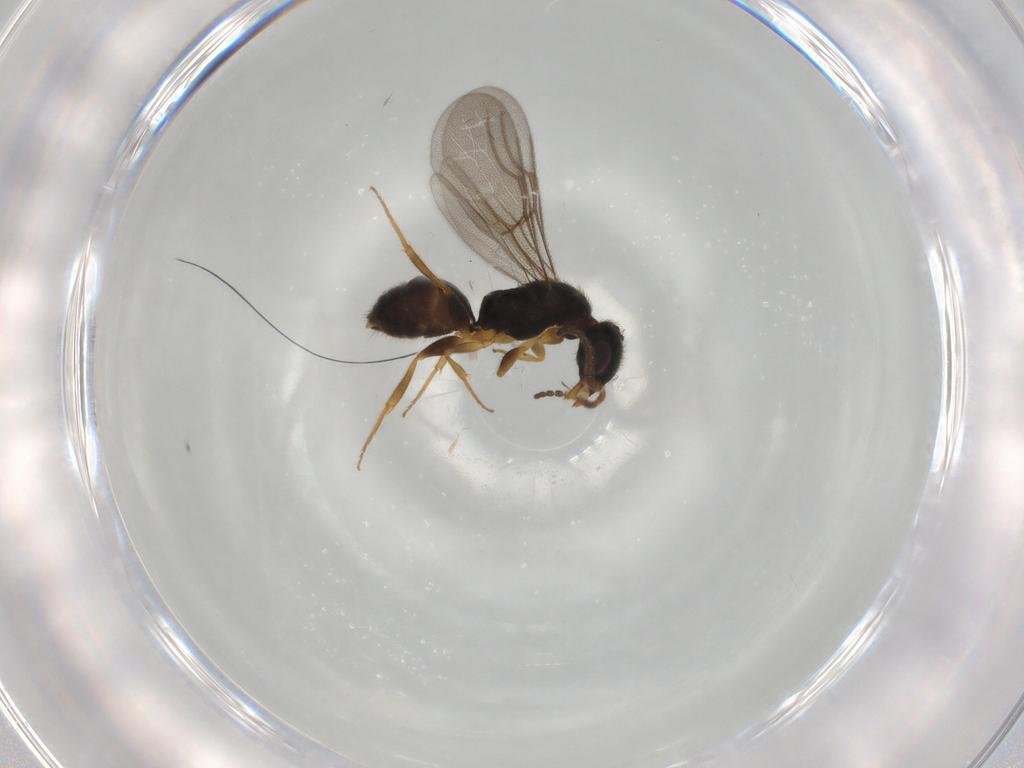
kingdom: Animalia
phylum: Arthropoda
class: Insecta
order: Hymenoptera
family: Bethylidae
